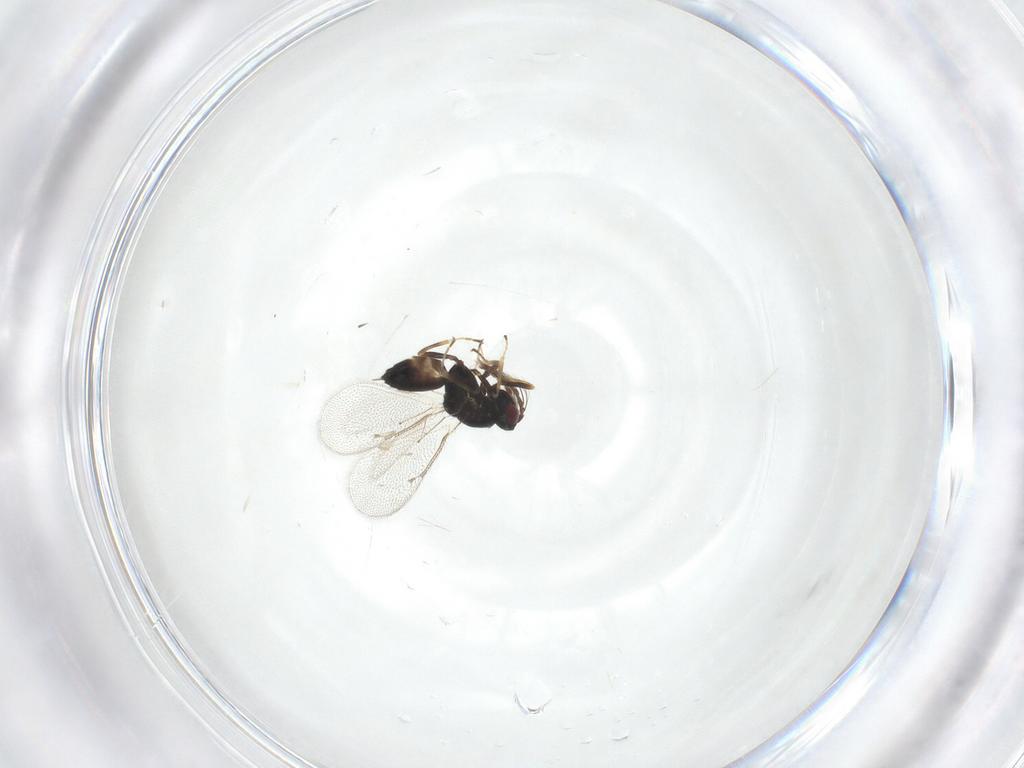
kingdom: Animalia
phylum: Arthropoda
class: Insecta
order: Hymenoptera
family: Eulophidae
